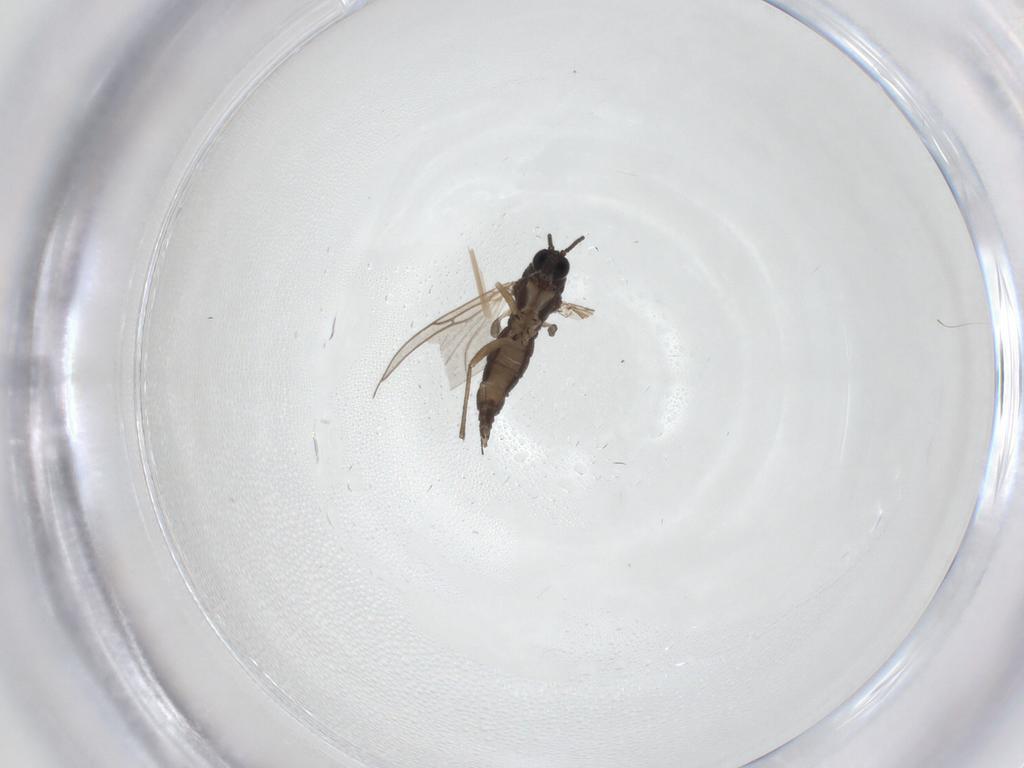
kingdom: Animalia
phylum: Arthropoda
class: Insecta
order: Diptera
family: Sciaridae
